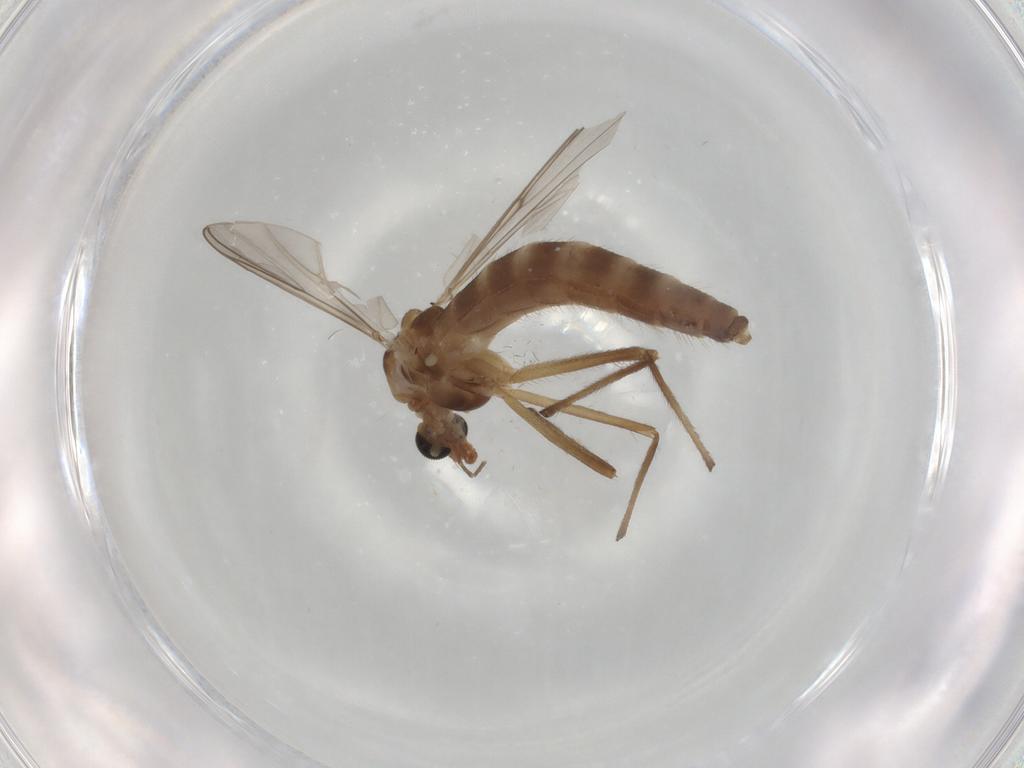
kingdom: Animalia
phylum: Arthropoda
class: Insecta
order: Diptera
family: Chironomidae
